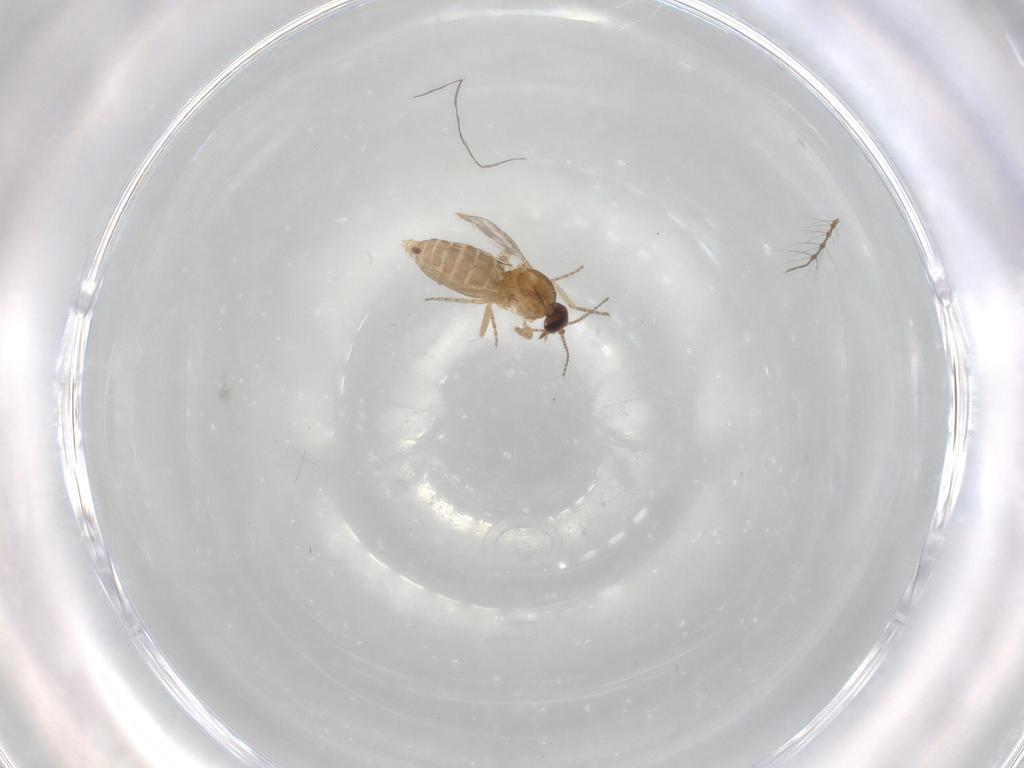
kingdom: Animalia
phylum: Arthropoda
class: Insecta
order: Diptera
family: Ceratopogonidae
